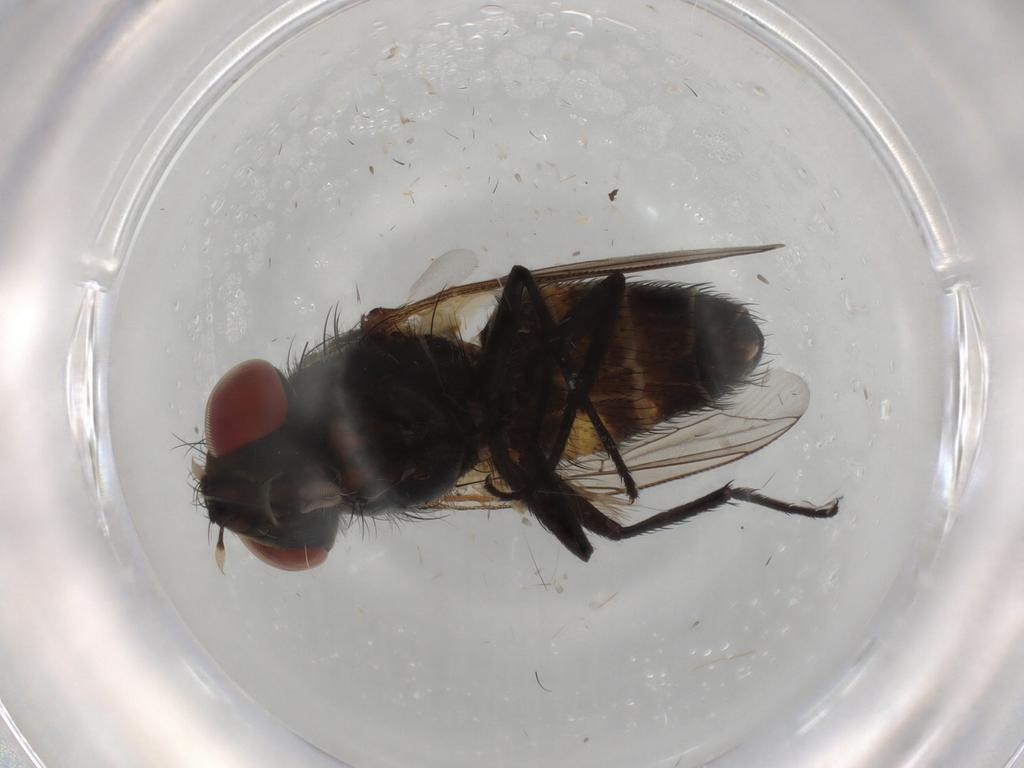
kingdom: Animalia
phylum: Arthropoda
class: Insecta
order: Diptera
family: Sarcophagidae
